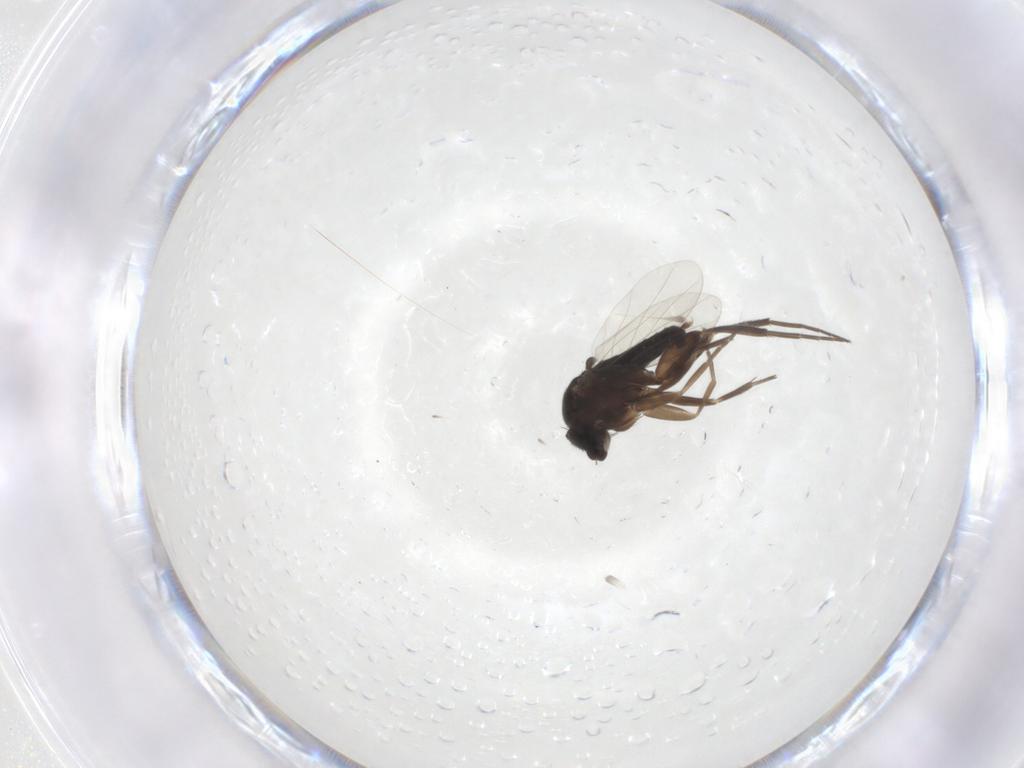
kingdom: Animalia
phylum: Arthropoda
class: Insecta
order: Diptera
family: Phoridae
